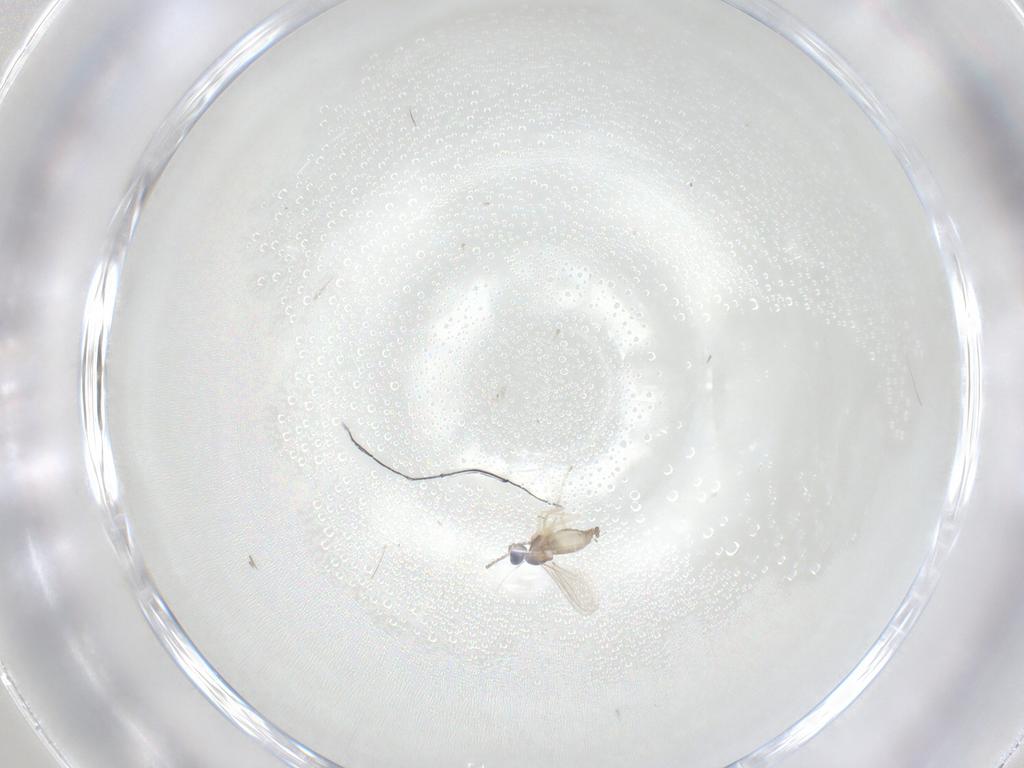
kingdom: Animalia
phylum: Arthropoda
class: Insecta
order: Diptera
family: Cecidomyiidae
